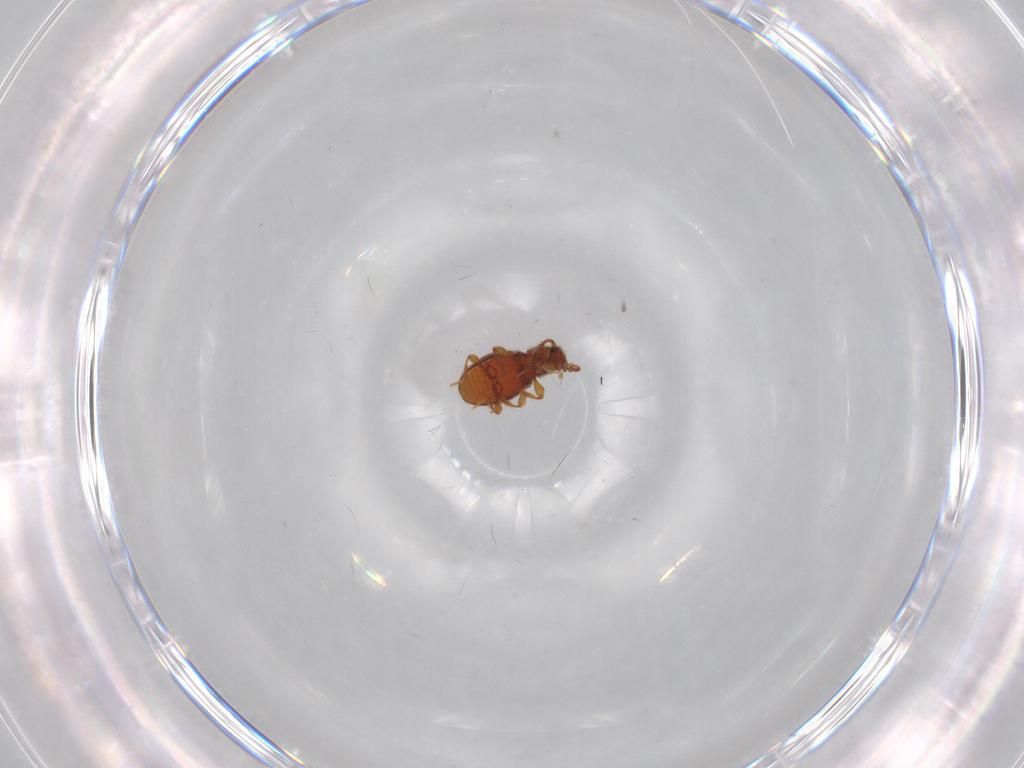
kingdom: Animalia
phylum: Arthropoda
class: Insecta
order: Coleoptera
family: Staphylinidae
